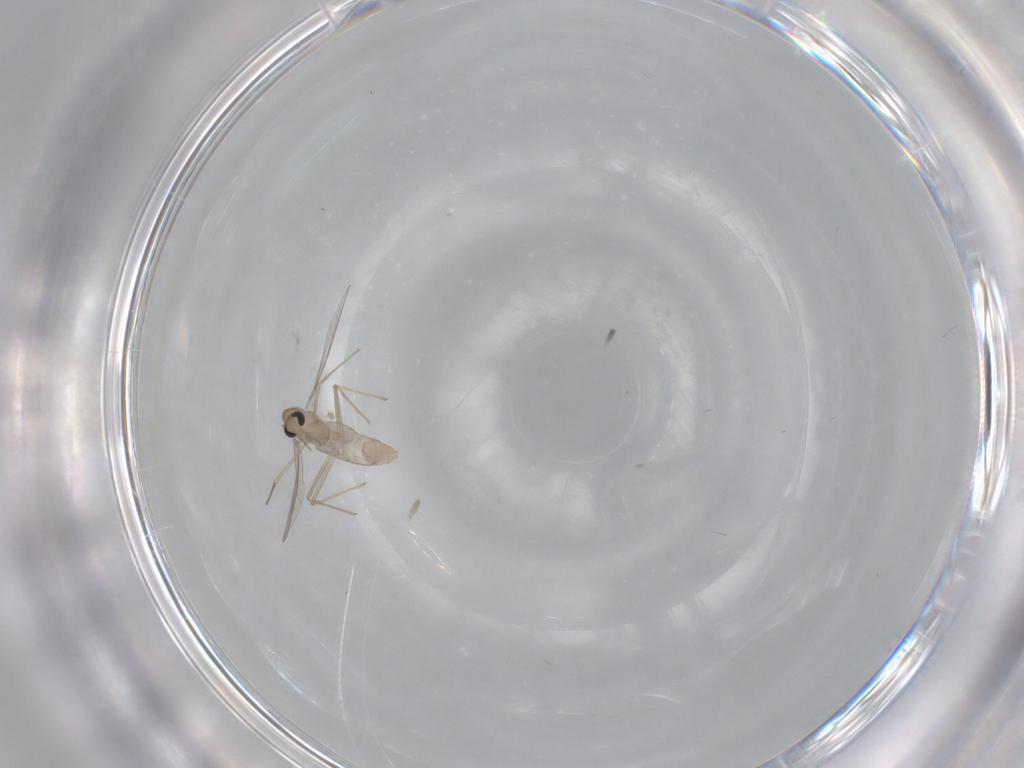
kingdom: Animalia
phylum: Arthropoda
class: Insecta
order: Diptera
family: Chironomidae
